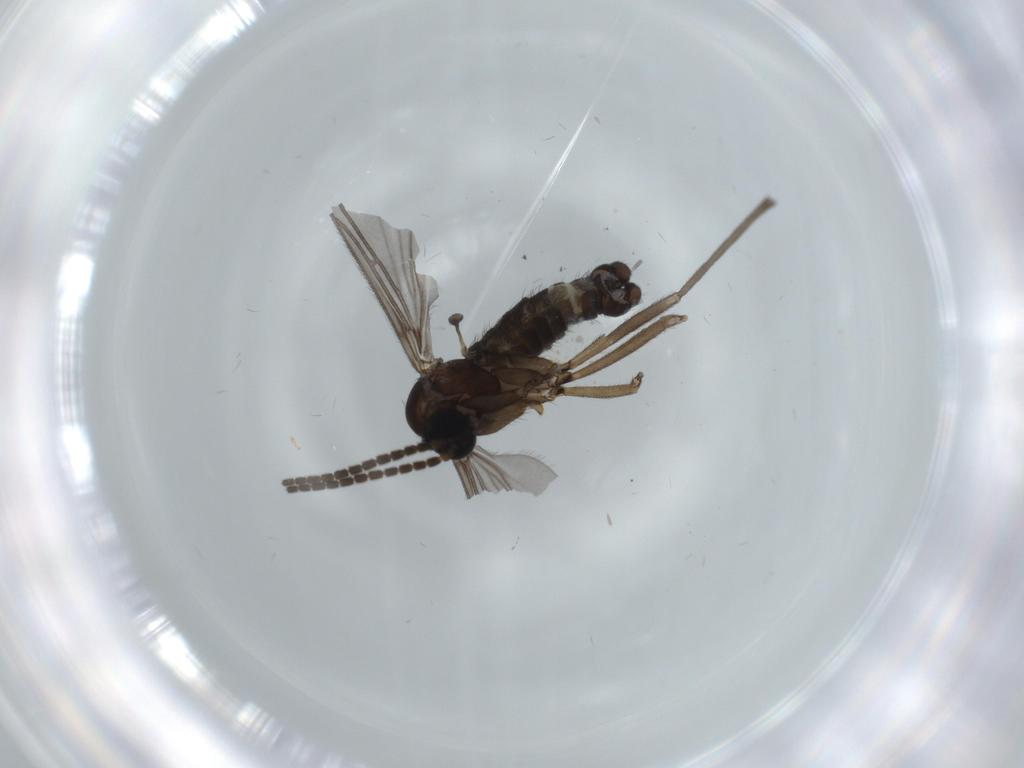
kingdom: Animalia
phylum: Arthropoda
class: Insecta
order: Diptera
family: Sciaridae
